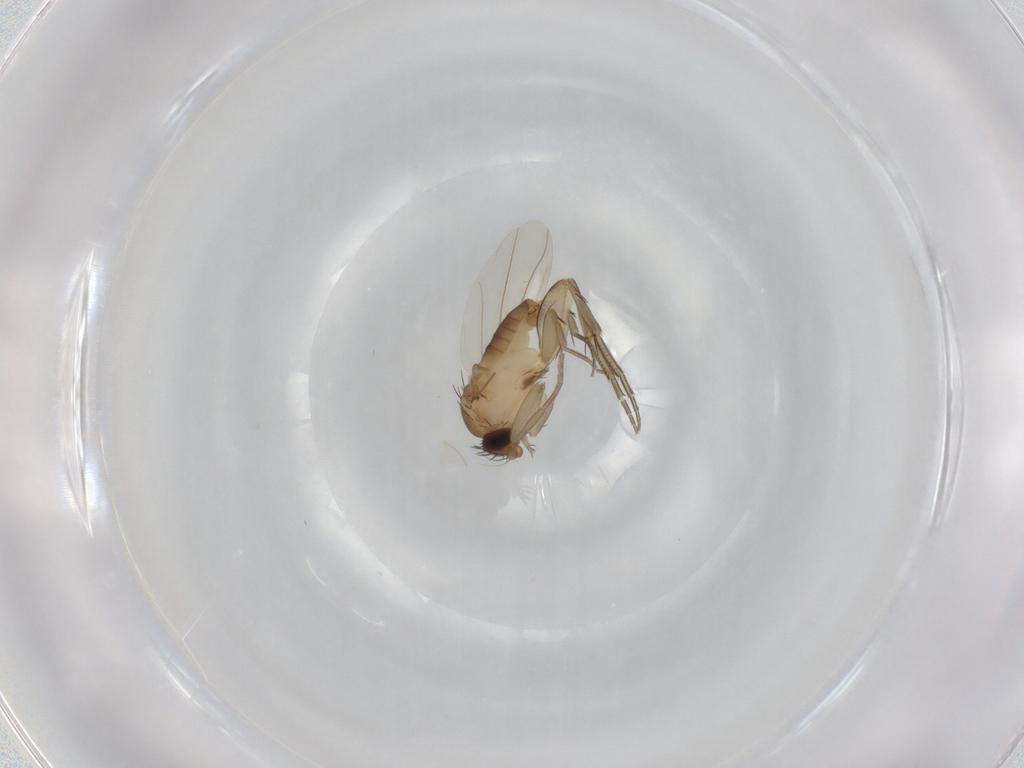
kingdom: Animalia
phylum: Arthropoda
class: Insecta
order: Diptera
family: Phoridae
